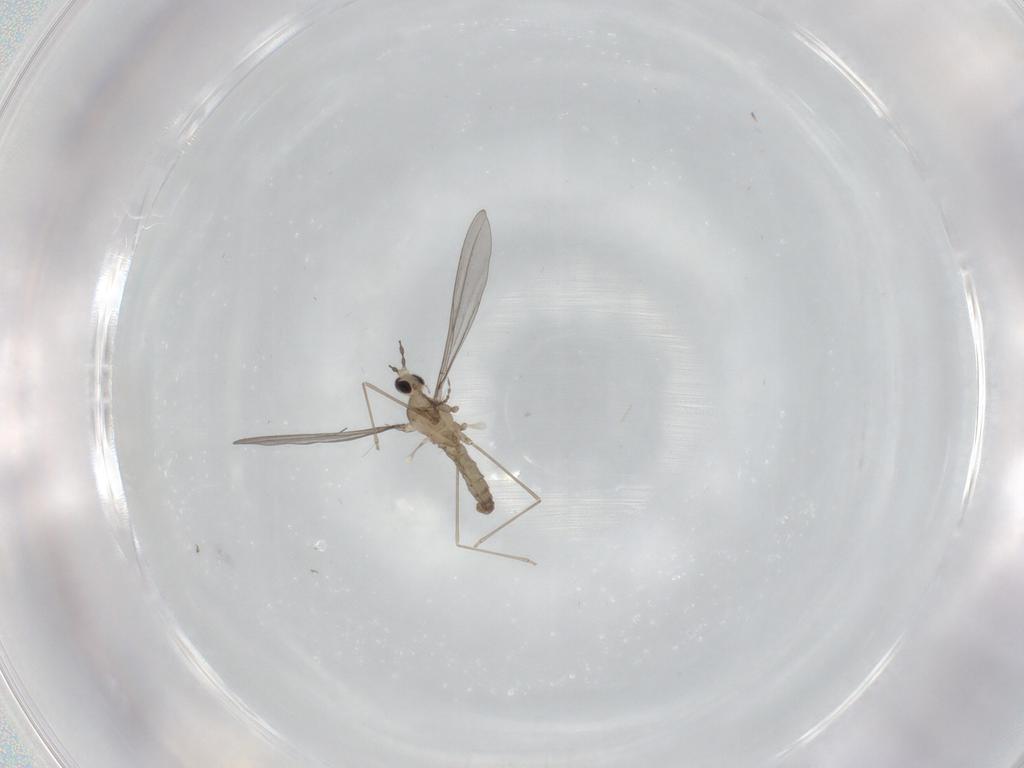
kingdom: Animalia
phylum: Arthropoda
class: Insecta
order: Diptera
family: Cecidomyiidae
